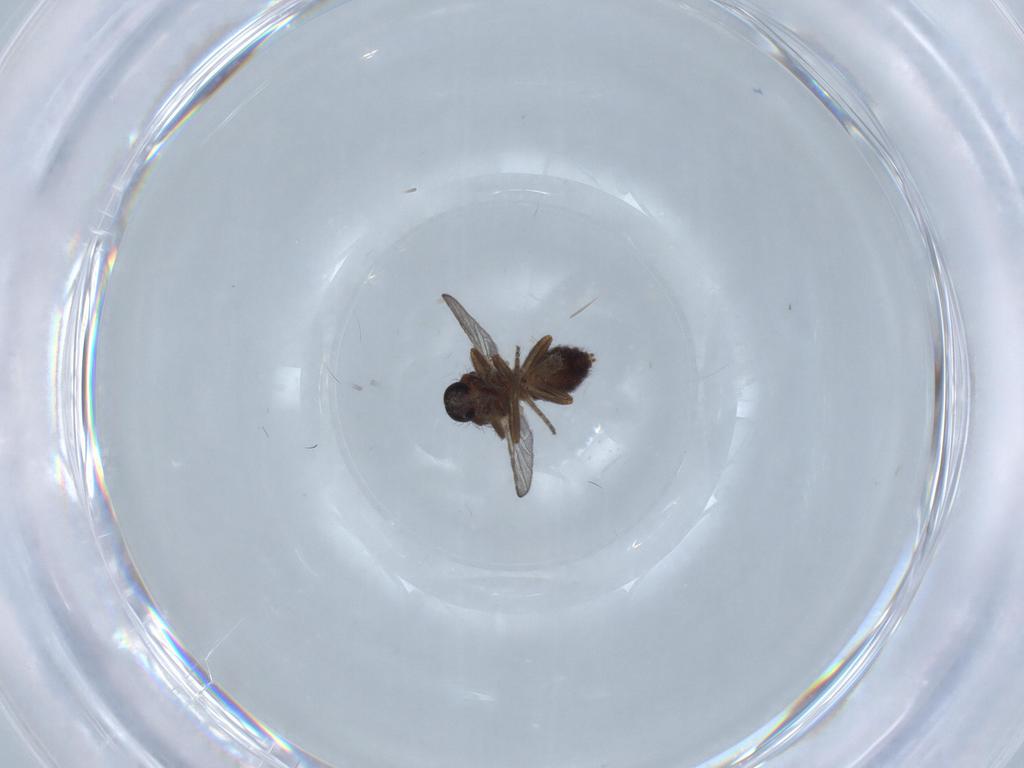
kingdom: Animalia
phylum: Arthropoda
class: Insecta
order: Diptera
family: Ceratopogonidae
